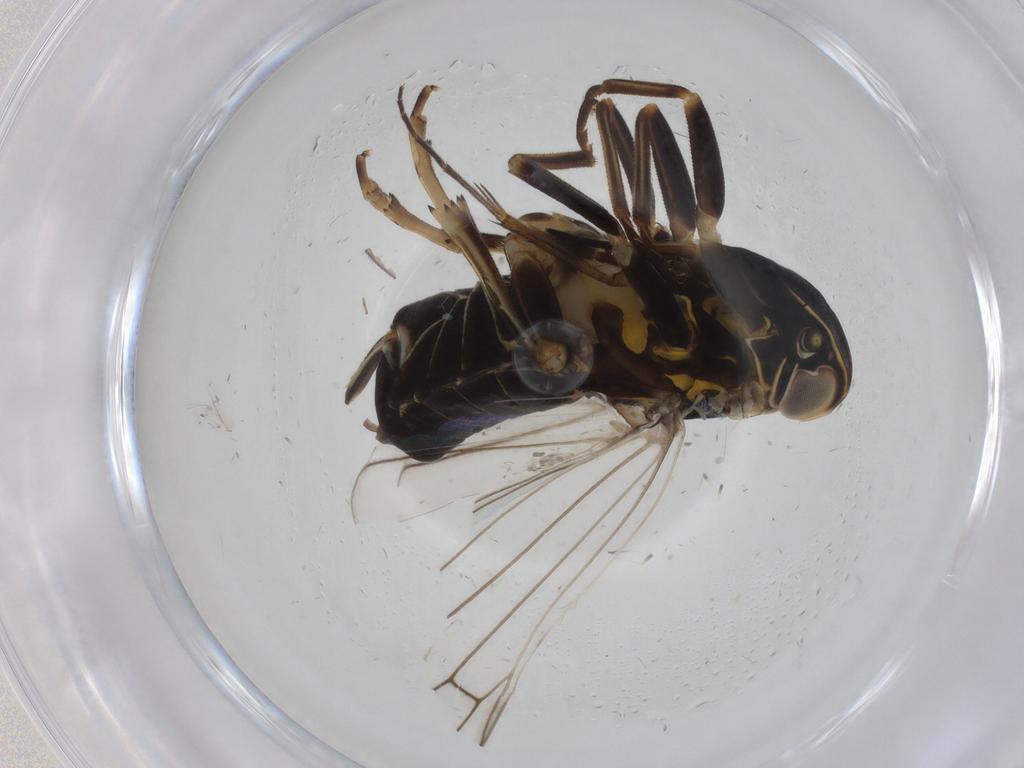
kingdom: Animalia
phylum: Arthropoda
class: Insecta
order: Hemiptera
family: Cixiidae
